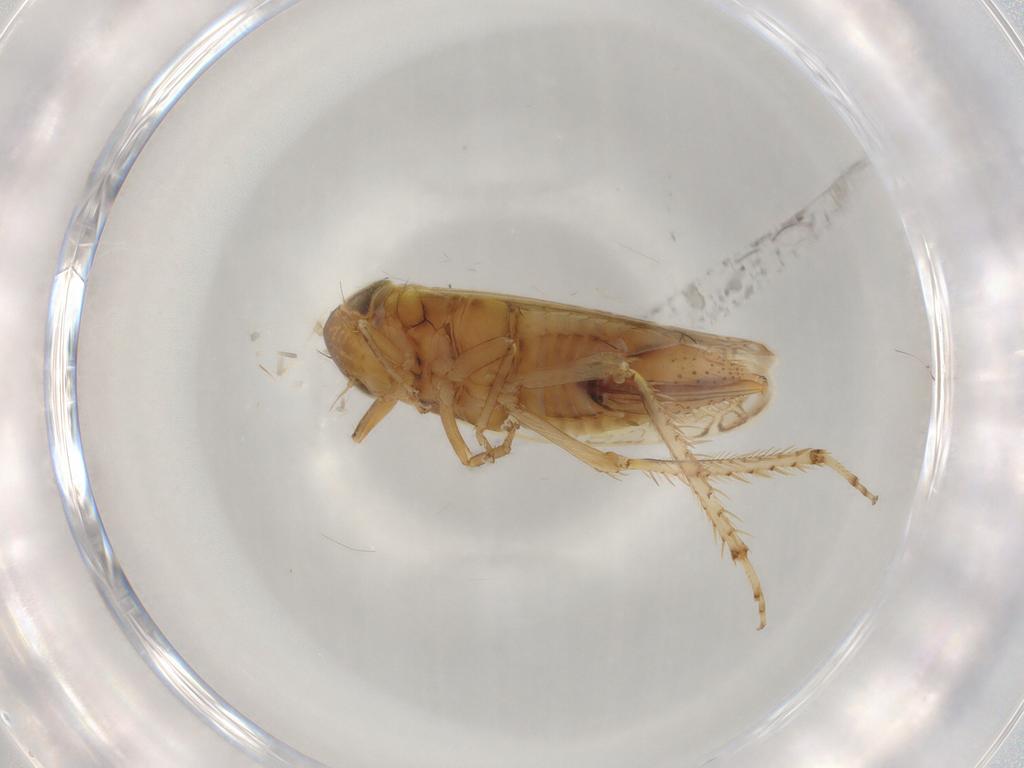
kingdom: Animalia
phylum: Arthropoda
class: Insecta
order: Hemiptera
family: Cicadellidae
